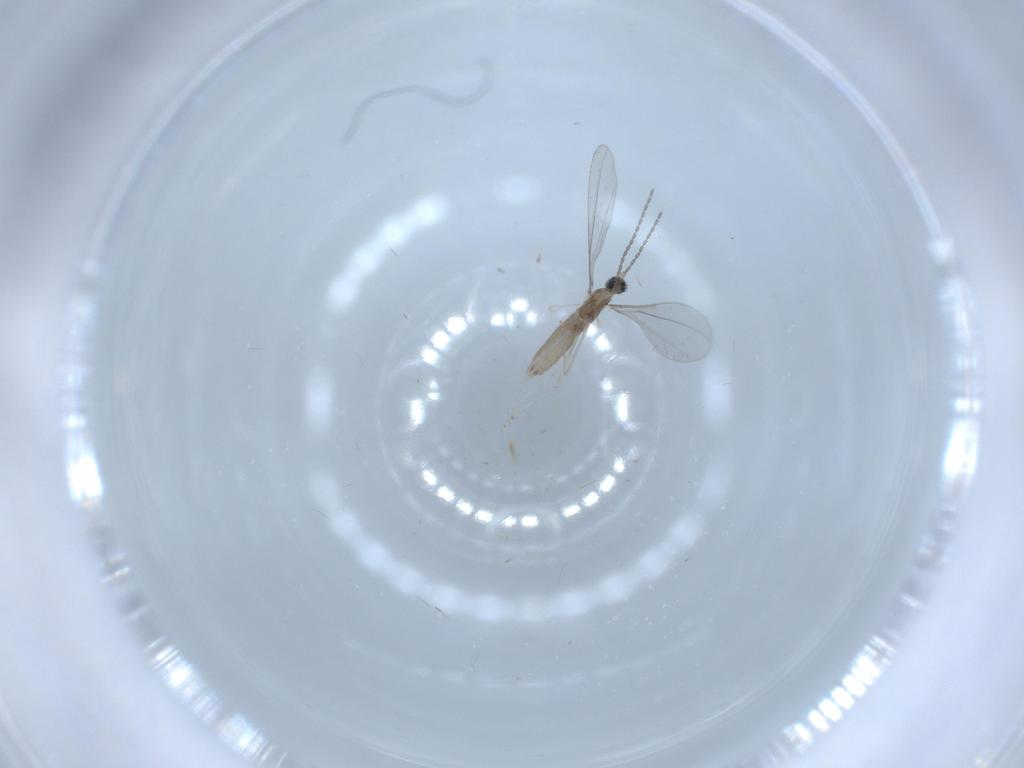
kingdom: Animalia
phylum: Arthropoda
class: Insecta
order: Diptera
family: Cecidomyiidae
